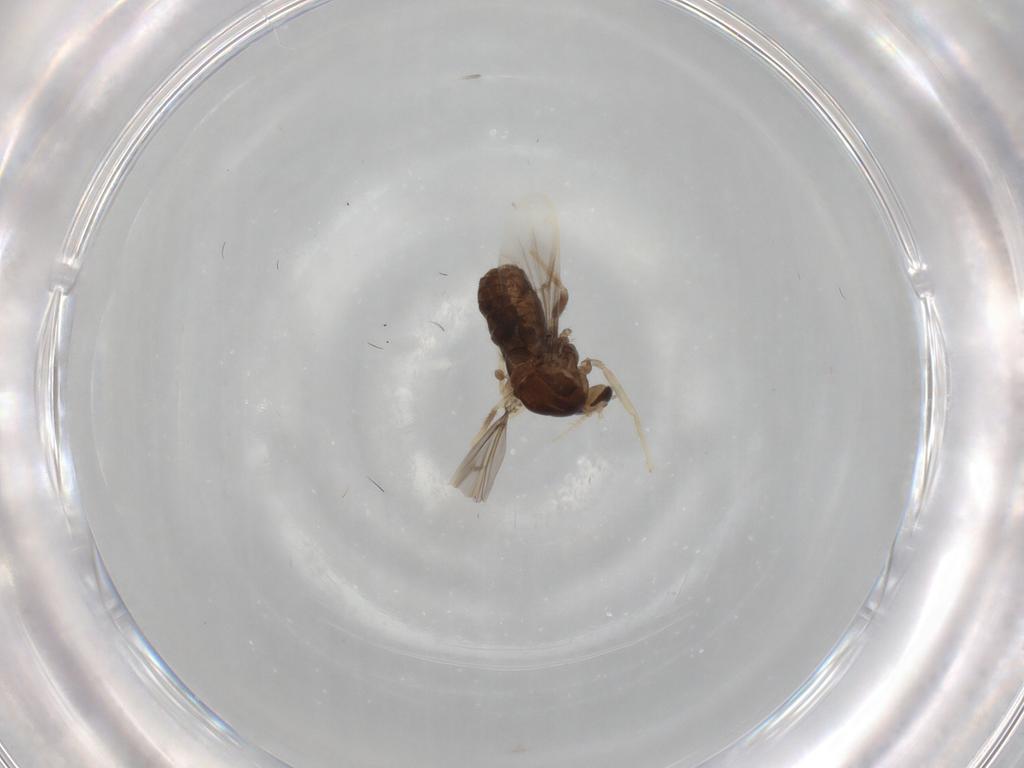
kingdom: Animalia
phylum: Arthropoda
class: Insecta
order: Diptera
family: Chironomidae
